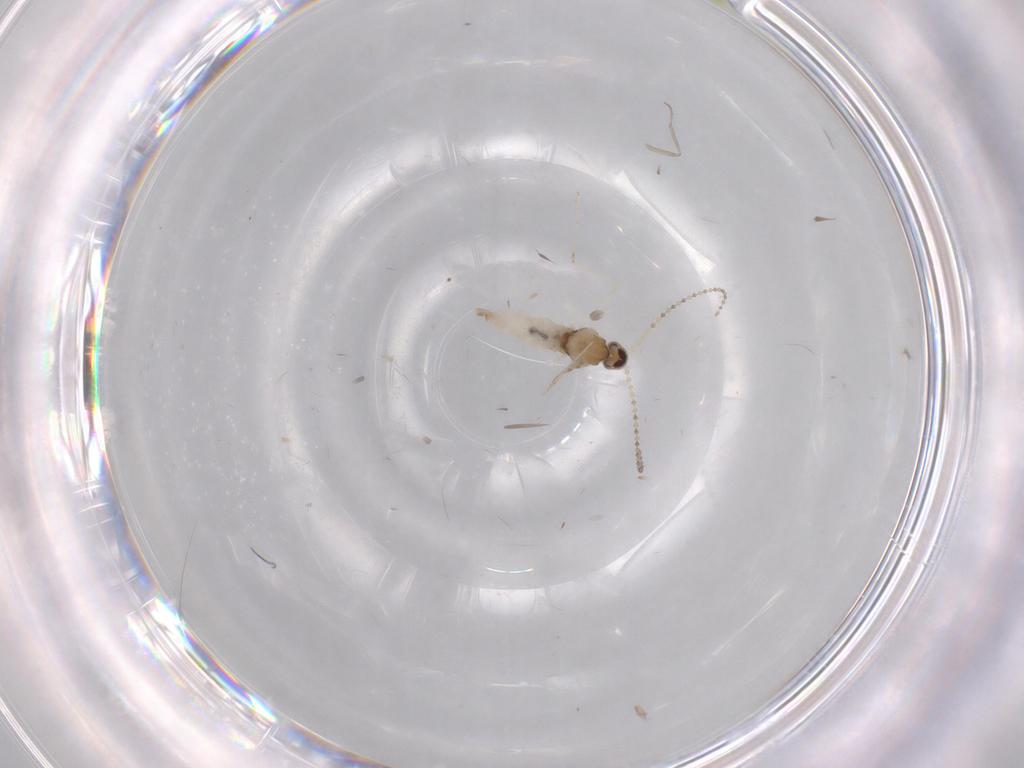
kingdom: Animalia
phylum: Arthropoda
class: Insecta
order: Diptera
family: Cecidomyiidae
